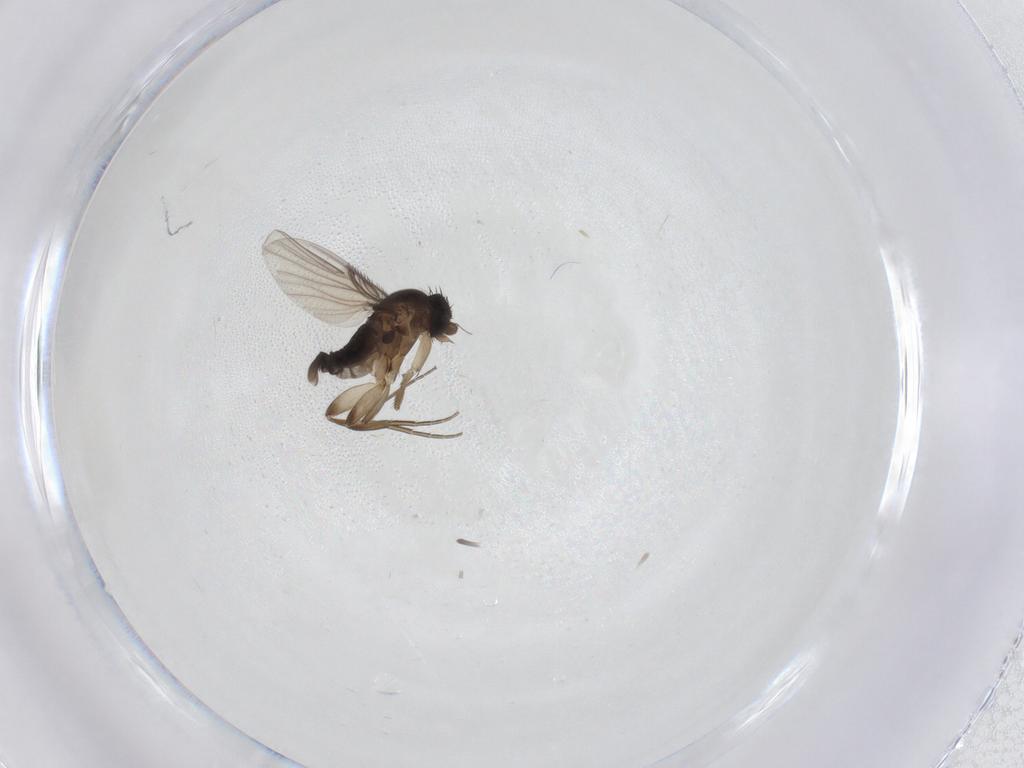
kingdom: Animalia
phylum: Arthropoda
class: Insecta
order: Diptera
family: Cecidomyiidae
